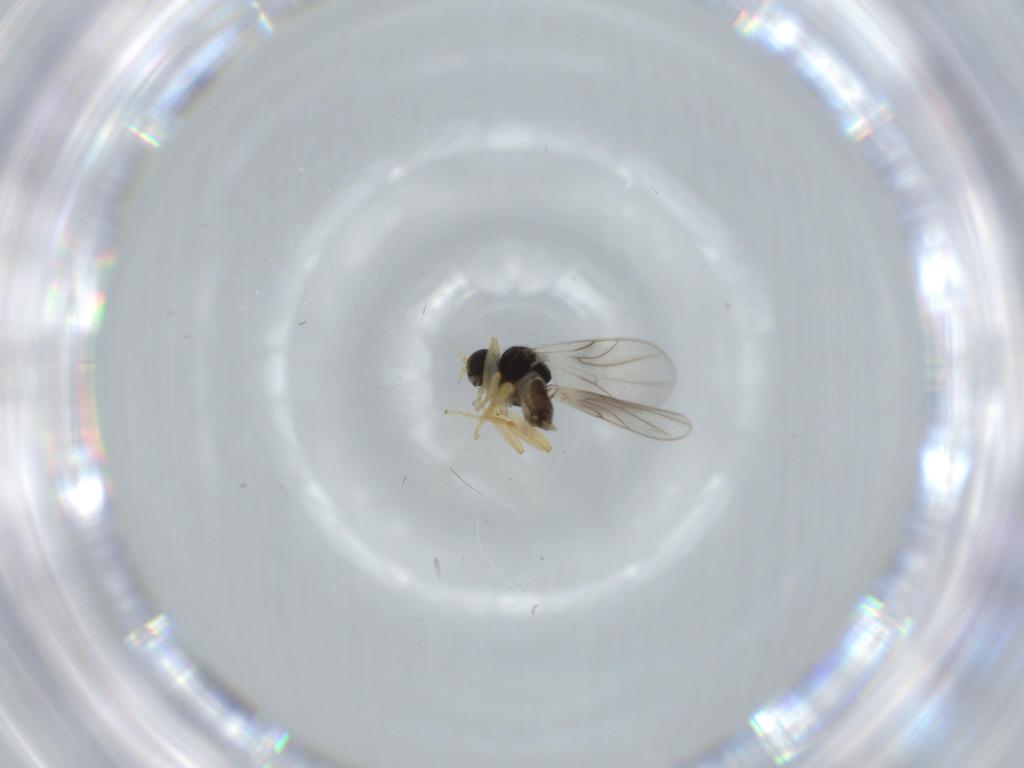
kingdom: Animalia
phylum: Arthropoda
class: Insecta
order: Diptera
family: Hybotidae
